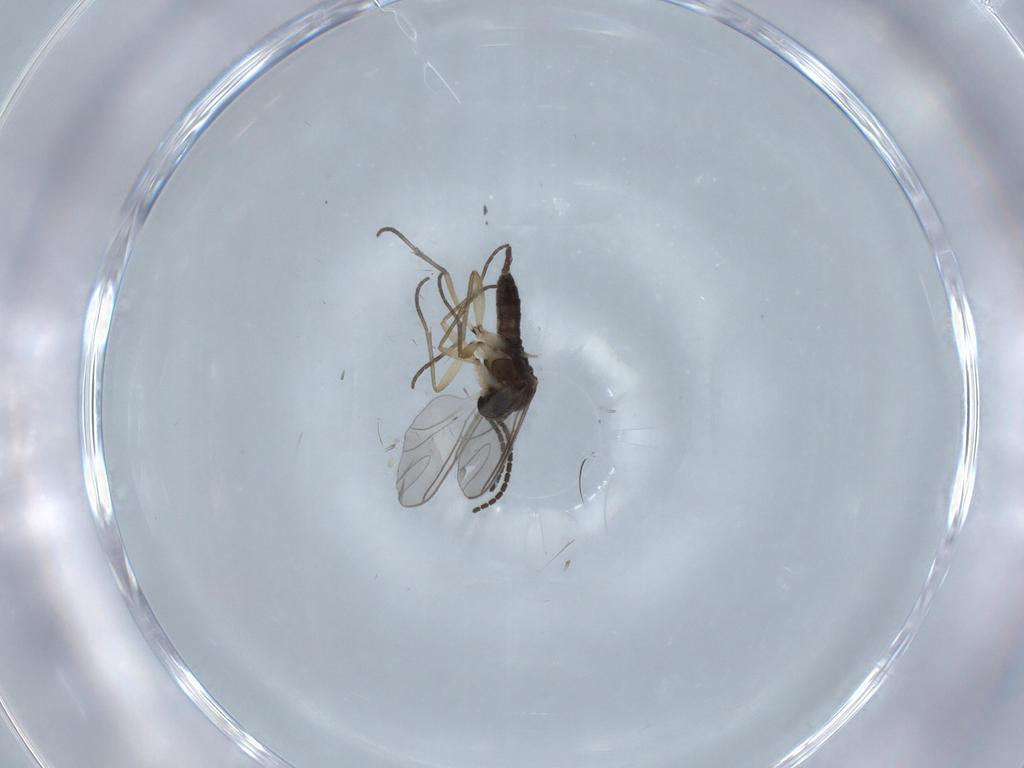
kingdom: Animalia
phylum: Arthropoda
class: Insecta
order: Diptera
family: Sciaridae
